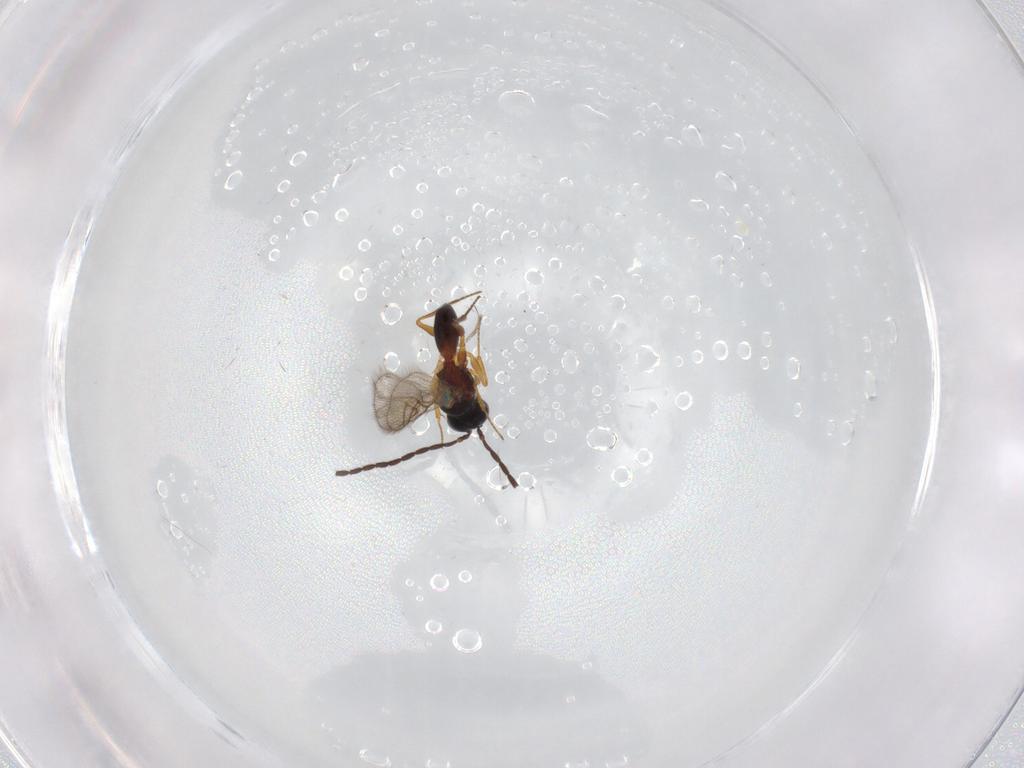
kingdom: Animalia
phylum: Arthropoda
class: Insecta
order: Hymenoptera
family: Figitidae
